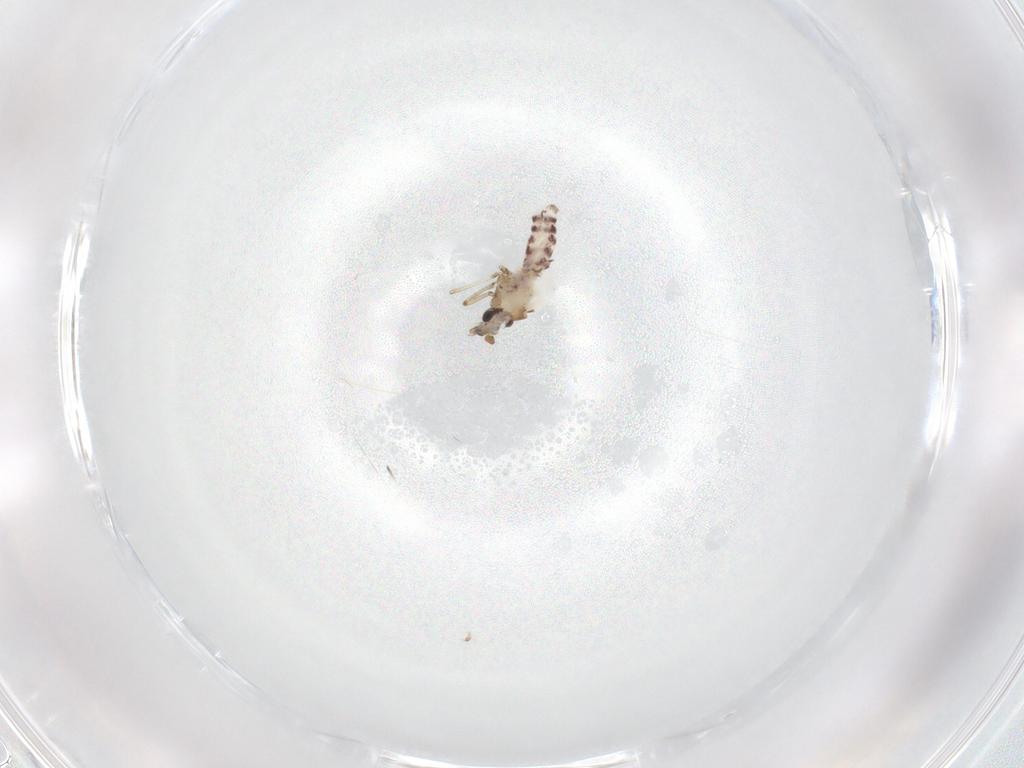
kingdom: Animalia
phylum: Arthropoda
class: Insecta
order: Diptera
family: Ceratopogonidae
